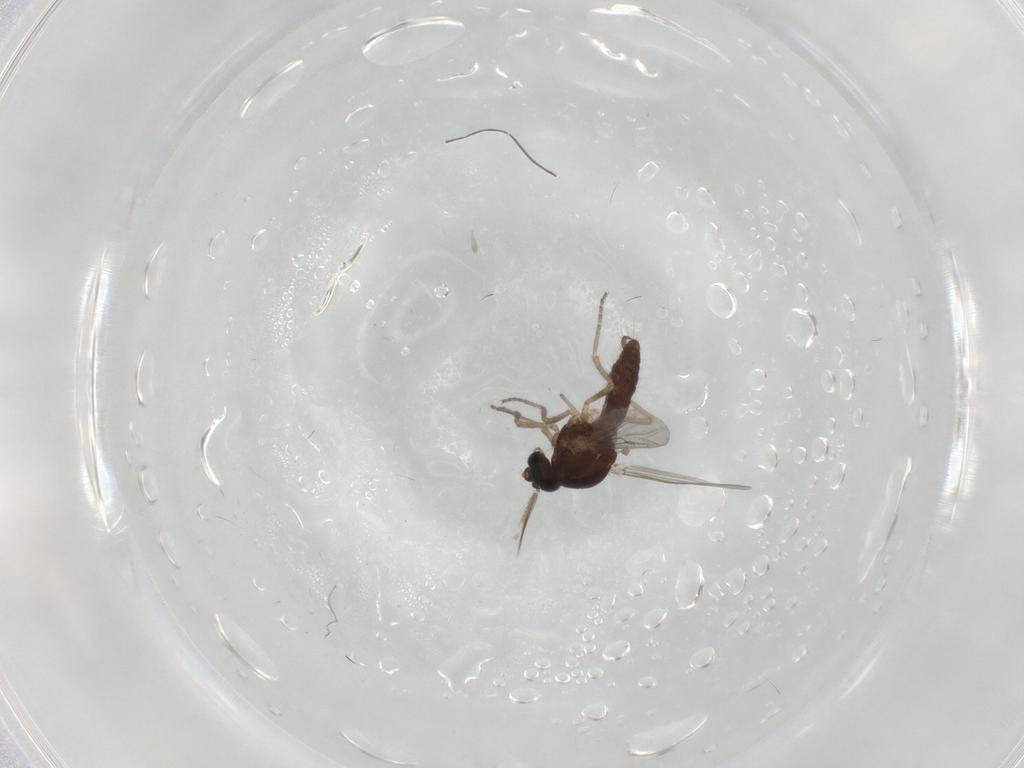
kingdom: Animalia
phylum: Arthropoda
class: Insecta
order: Diptera
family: Ceratopogonidae
